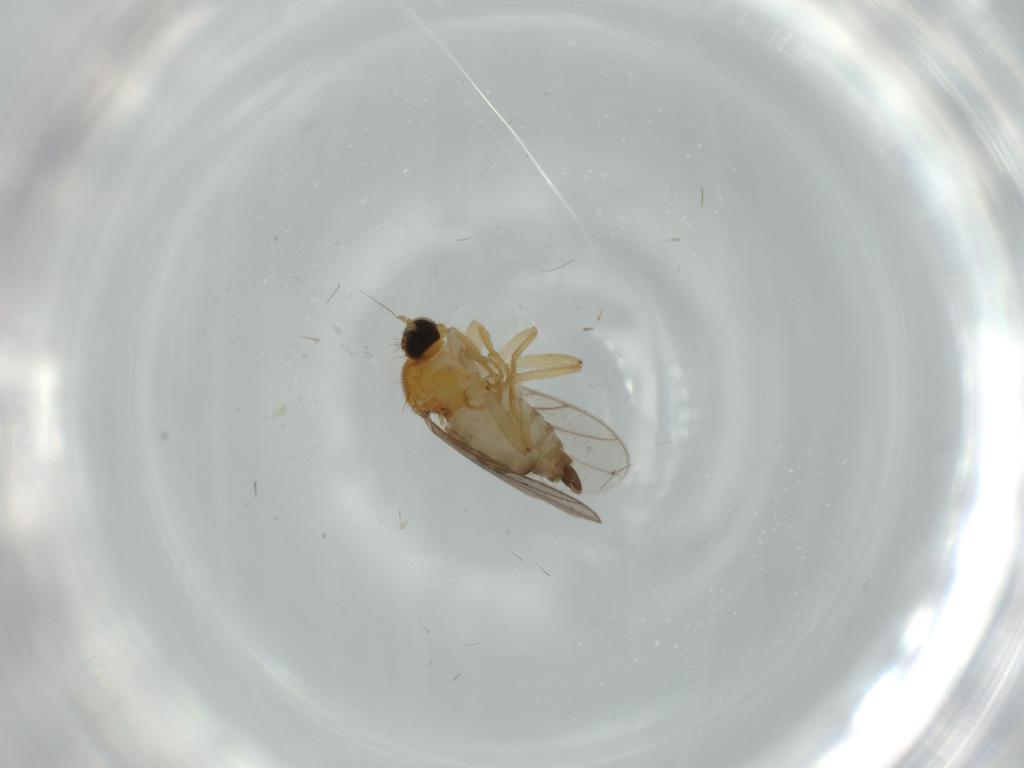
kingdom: Animalia
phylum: Arthropoda
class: Insecta
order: Diptera
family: Hybotidae
